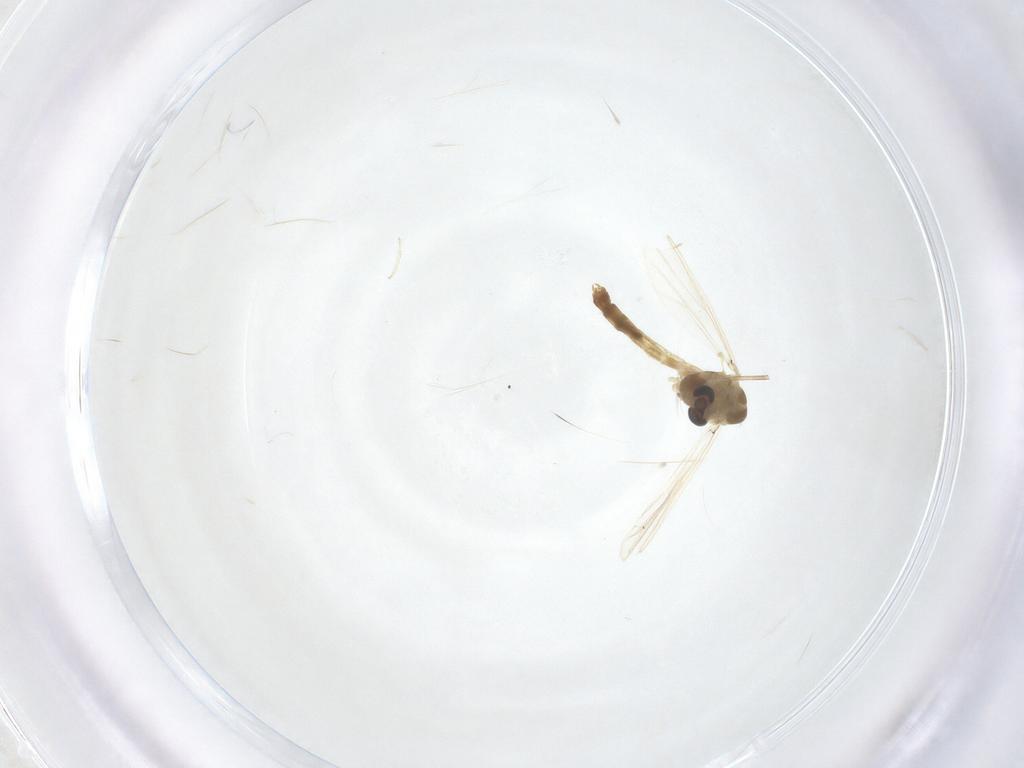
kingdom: Animalia
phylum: Arthropoda
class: Insecta
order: Diptera
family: Chironomidae
